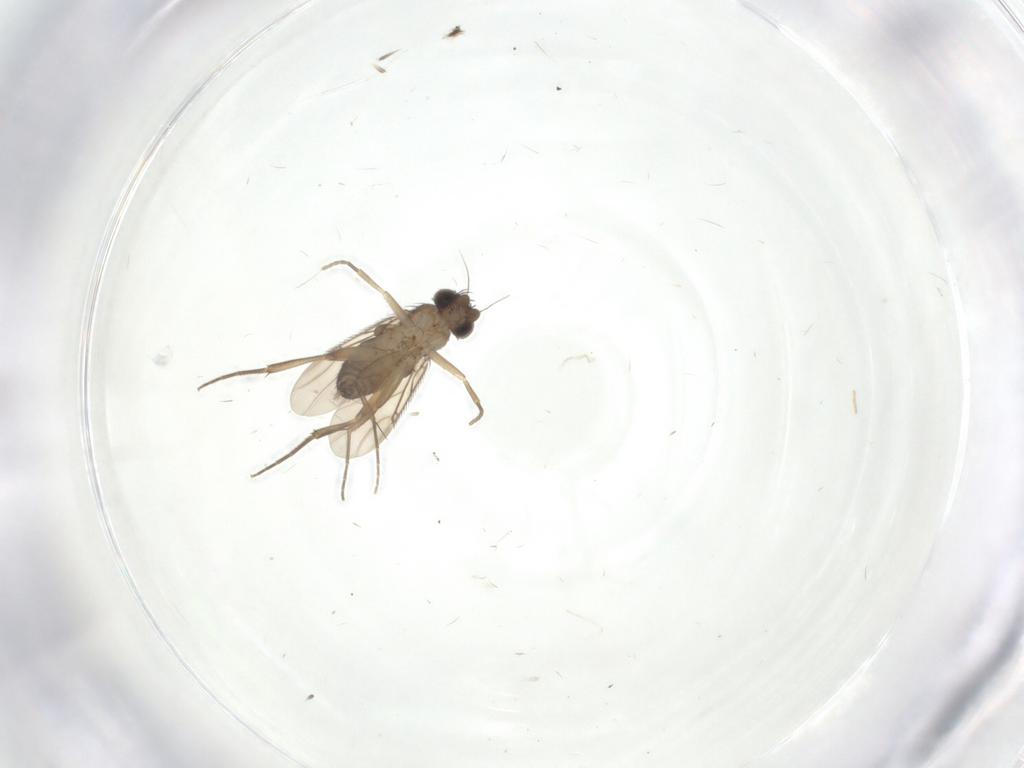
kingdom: Animalia
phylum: Arthropoda
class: Insecta
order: Diptera
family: Phoridae
